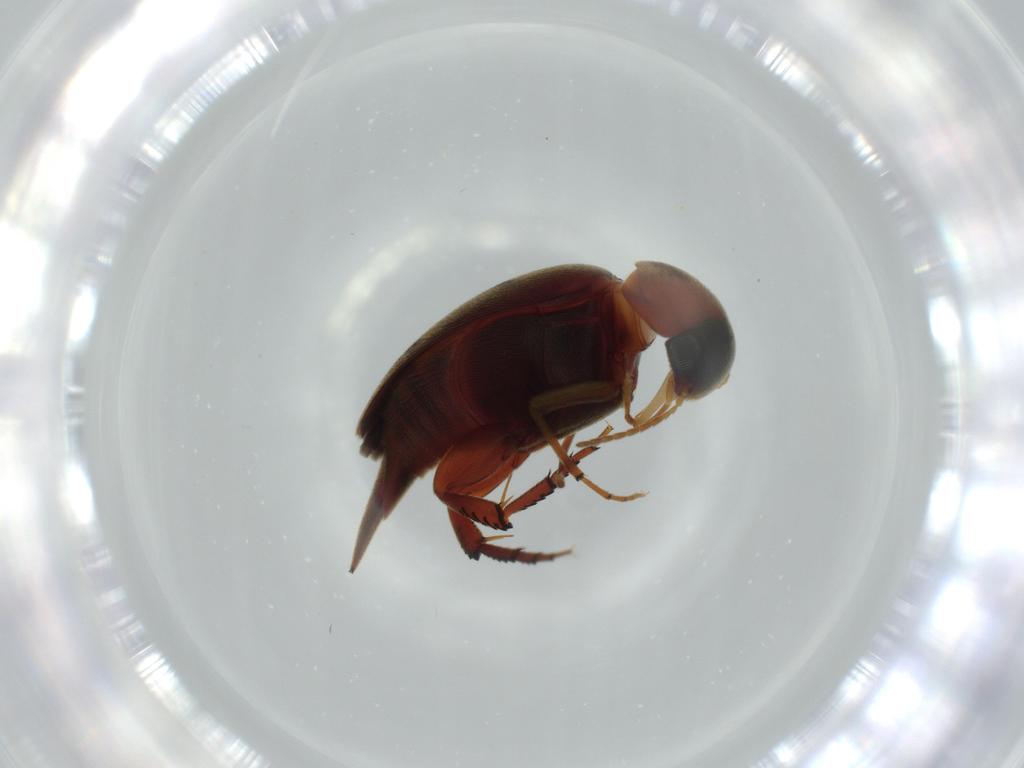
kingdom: Animalia
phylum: Arthropoda
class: Insecta
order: Coleoptera
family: Mordellidae
